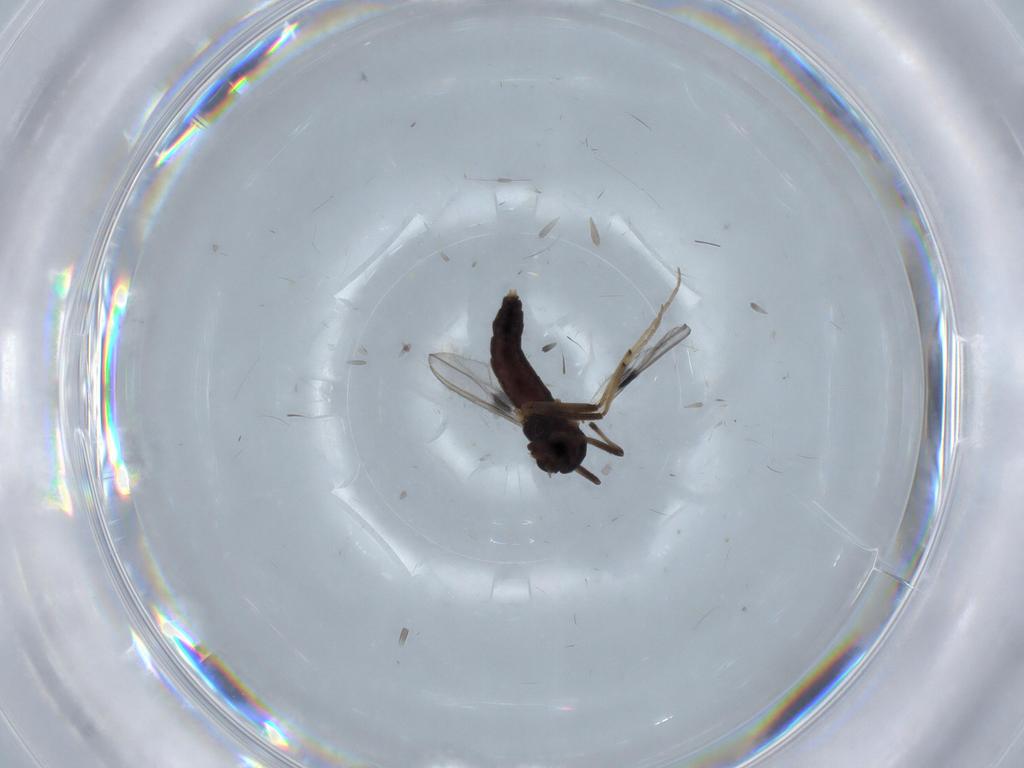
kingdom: Animalia
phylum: Arthropoda
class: Insecta
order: Diptera
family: Chironomidae
